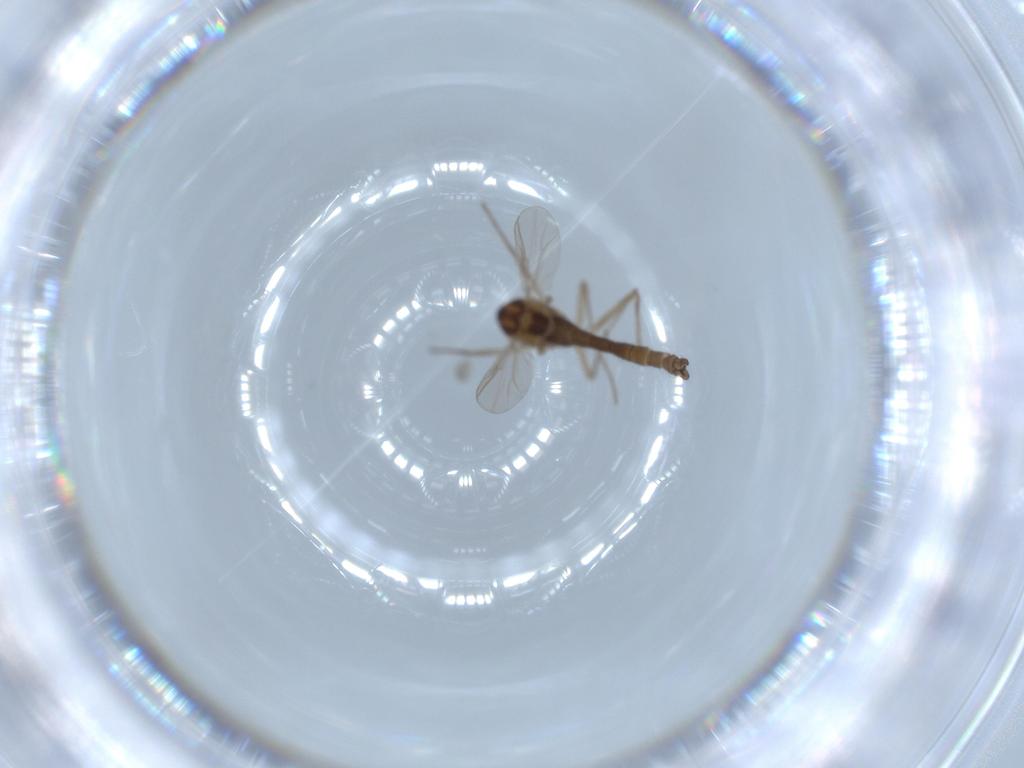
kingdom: Animalia
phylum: Arthropoda
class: Insecta
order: Diptera
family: Chironomidae
